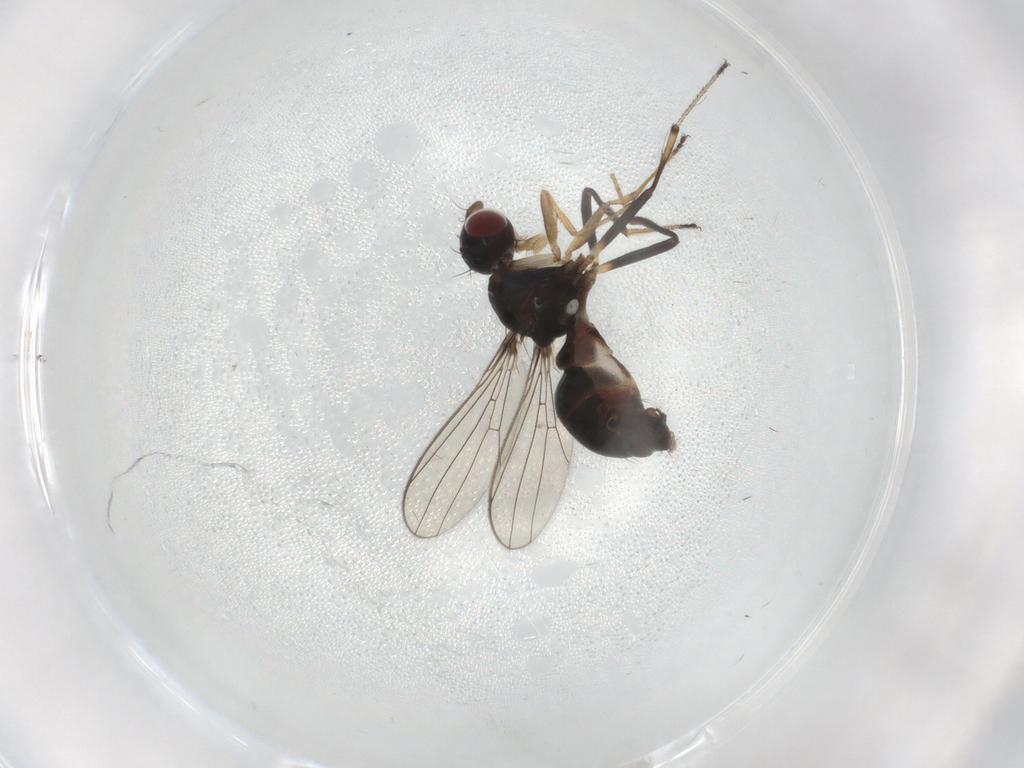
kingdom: Animalia
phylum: Arthropoda
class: Insecta
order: Diptera
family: Sepsidae
